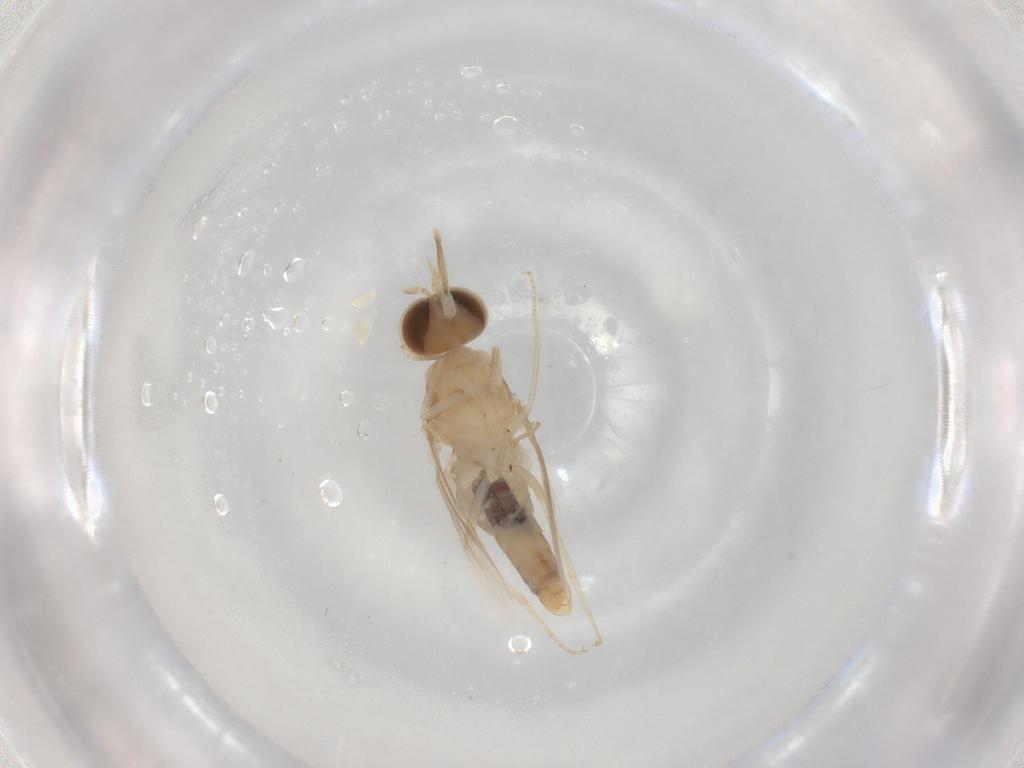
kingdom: Animalia
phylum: Arthropoda
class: Insecta
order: Diptera
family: Scenopinidae
